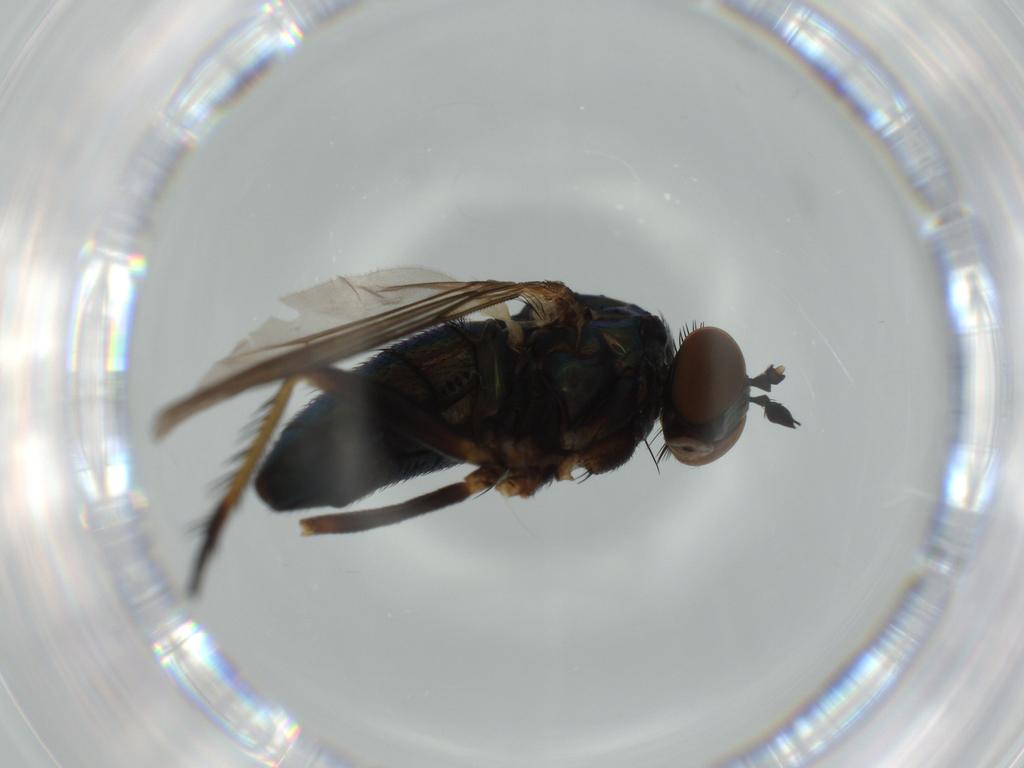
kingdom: Animalia
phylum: Arthropoda
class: Insecta
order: Diptera
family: Dolichopodidae
